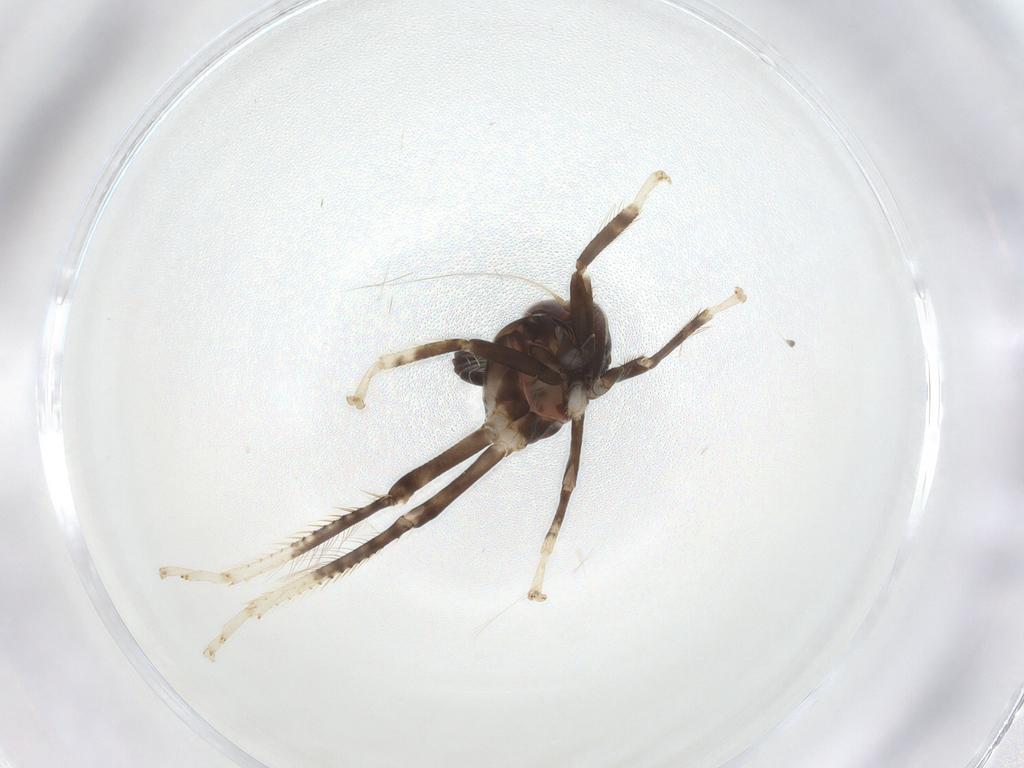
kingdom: Animalia
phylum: Arthropoda
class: Insecta
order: Hemiptera
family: Cicadellidae
